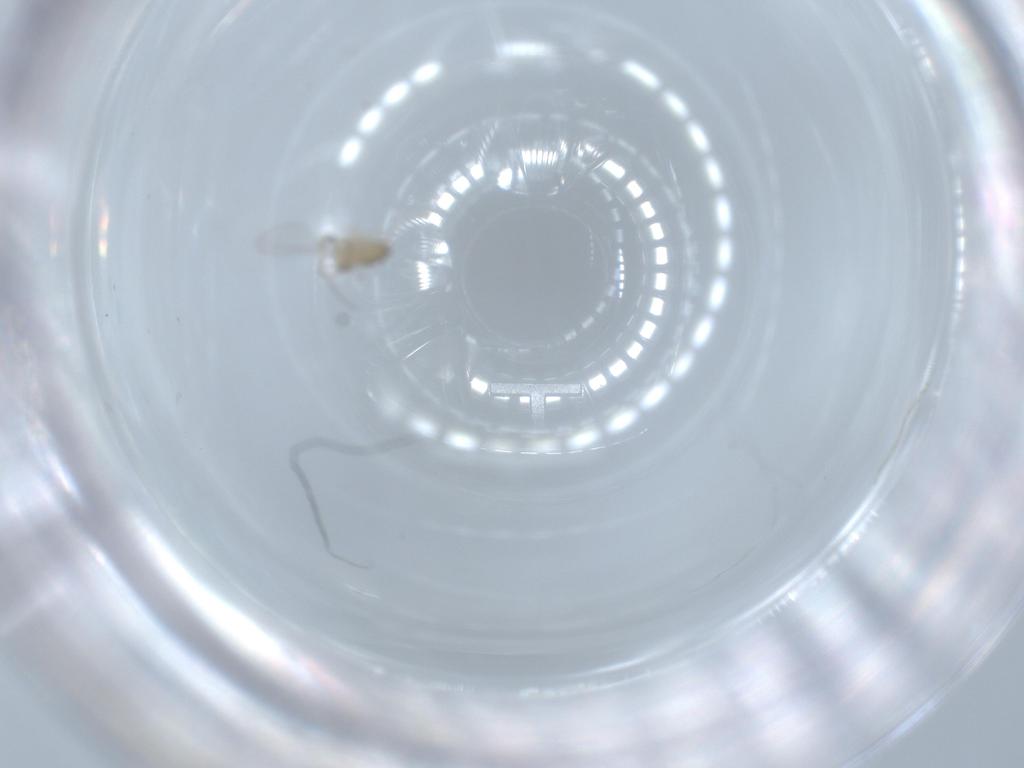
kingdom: Animalia
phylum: Arthropoda
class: Insecta
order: Diptera
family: Cecidomyiidae
